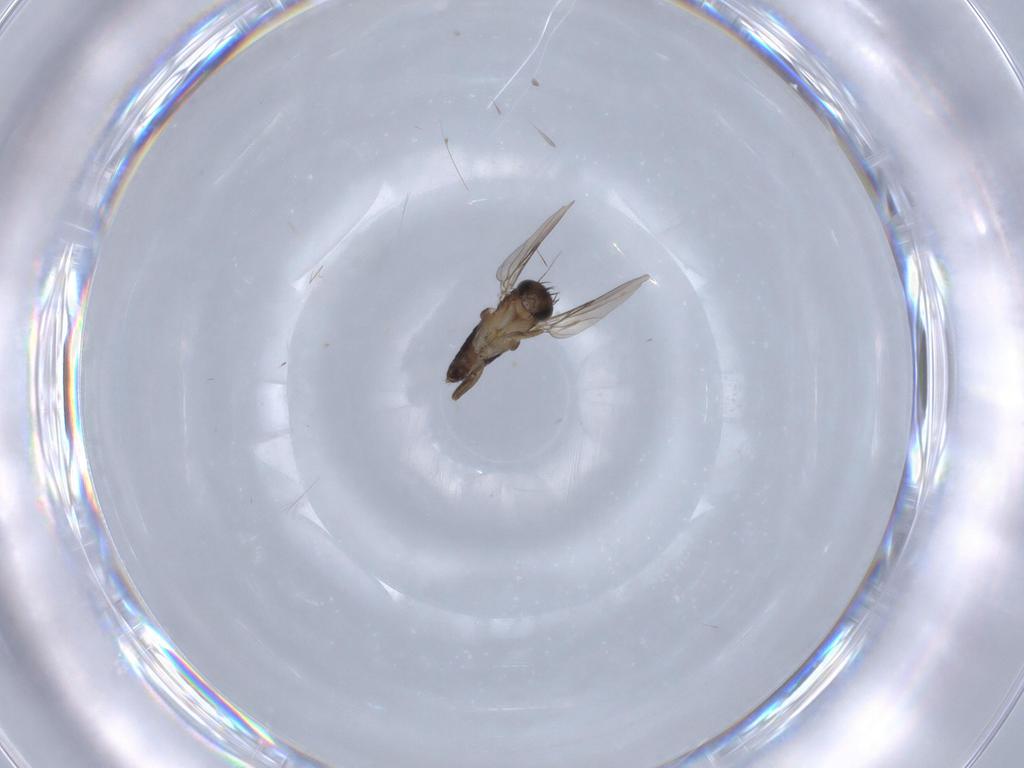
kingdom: Animalia
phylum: Arthropoda
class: Insecta
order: Diptera
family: Phoridae
